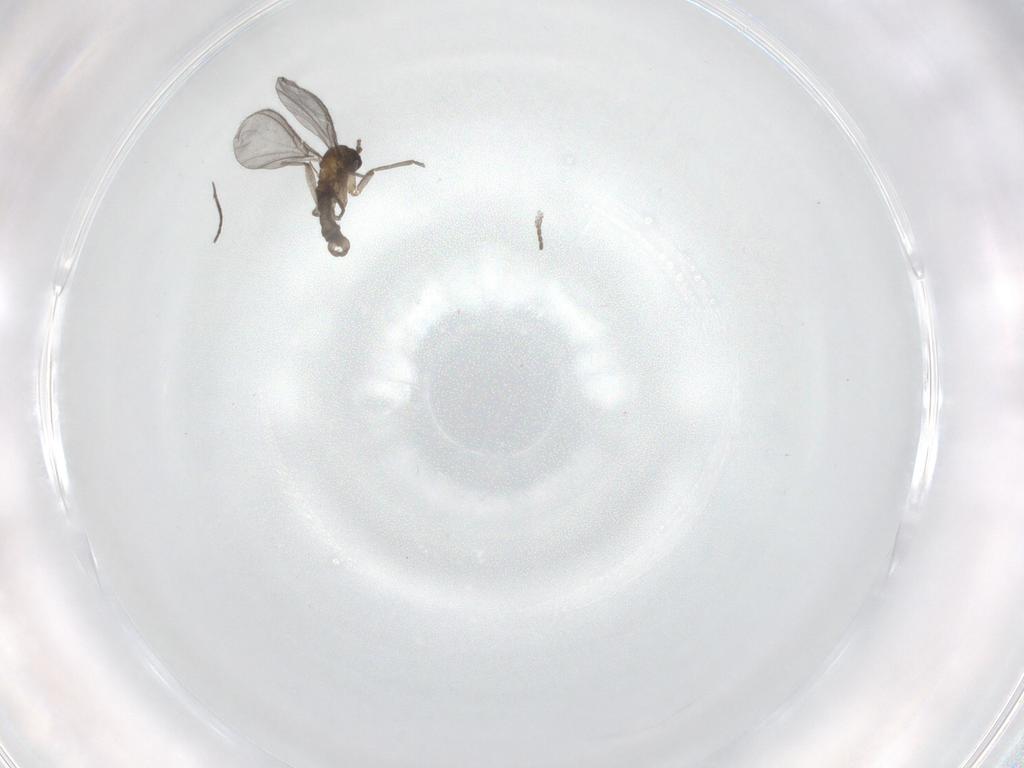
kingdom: Animalia
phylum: Arthropoda
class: Insecta
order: Diptera
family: Sciaridae
